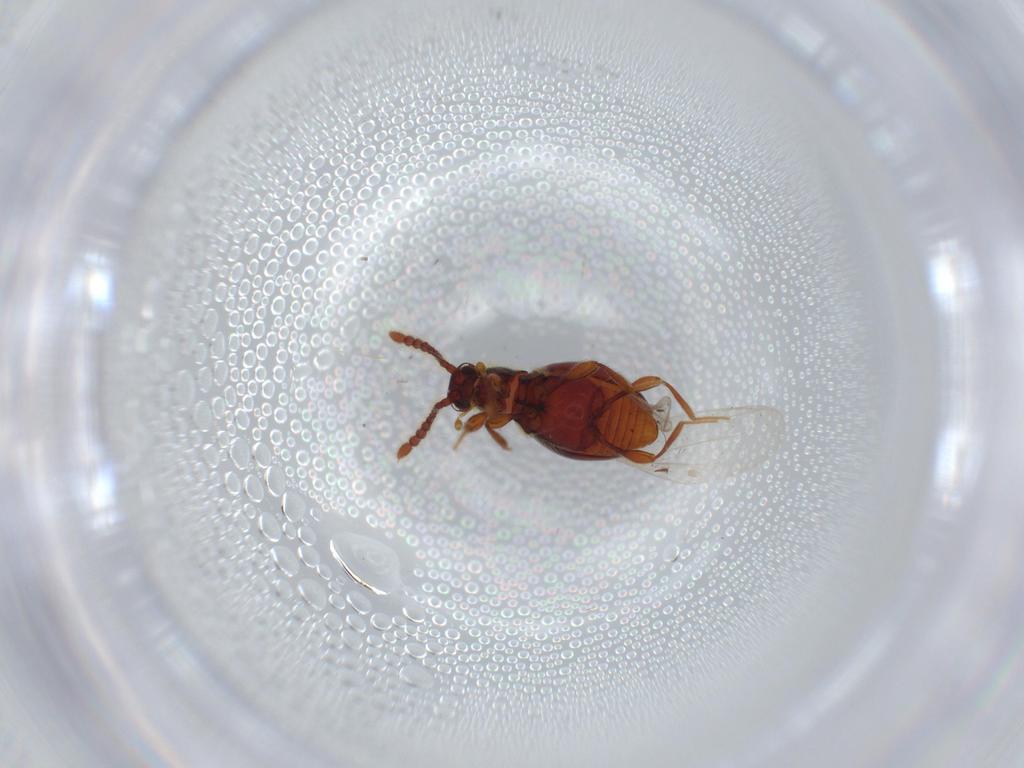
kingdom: Animalia
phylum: Arthropoda
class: Insecta
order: Coleoptera
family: Staphylinidae
